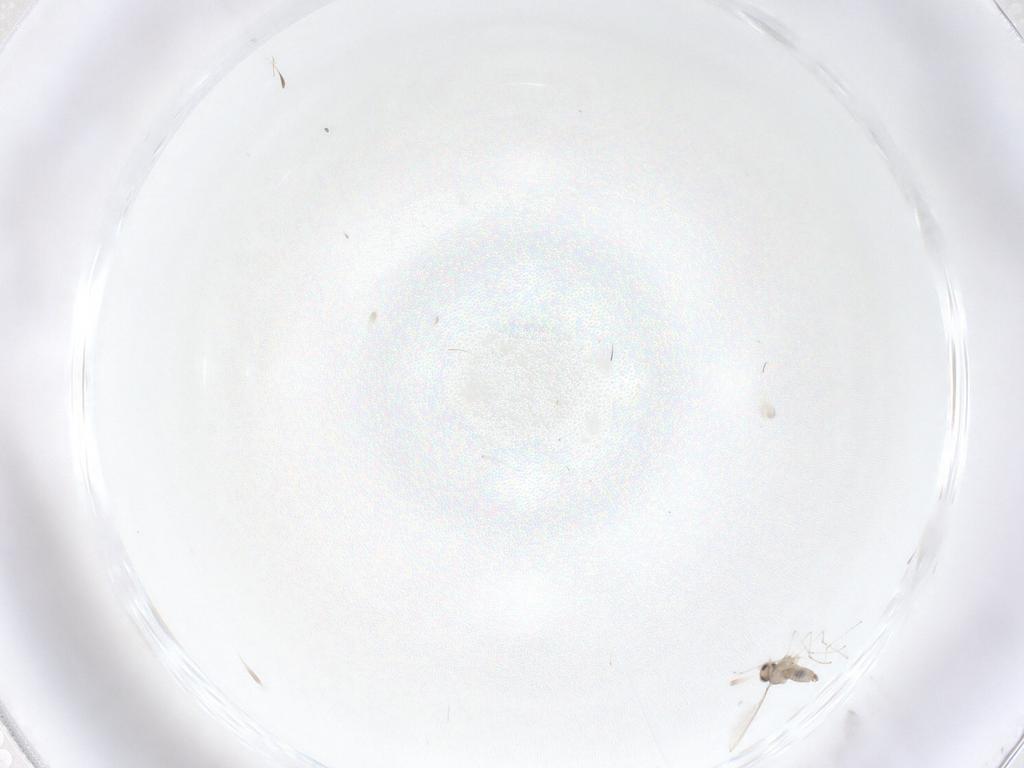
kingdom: Animalia
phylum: Arthropoda
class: Insecta
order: Diptera
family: Cecidomyiidae
